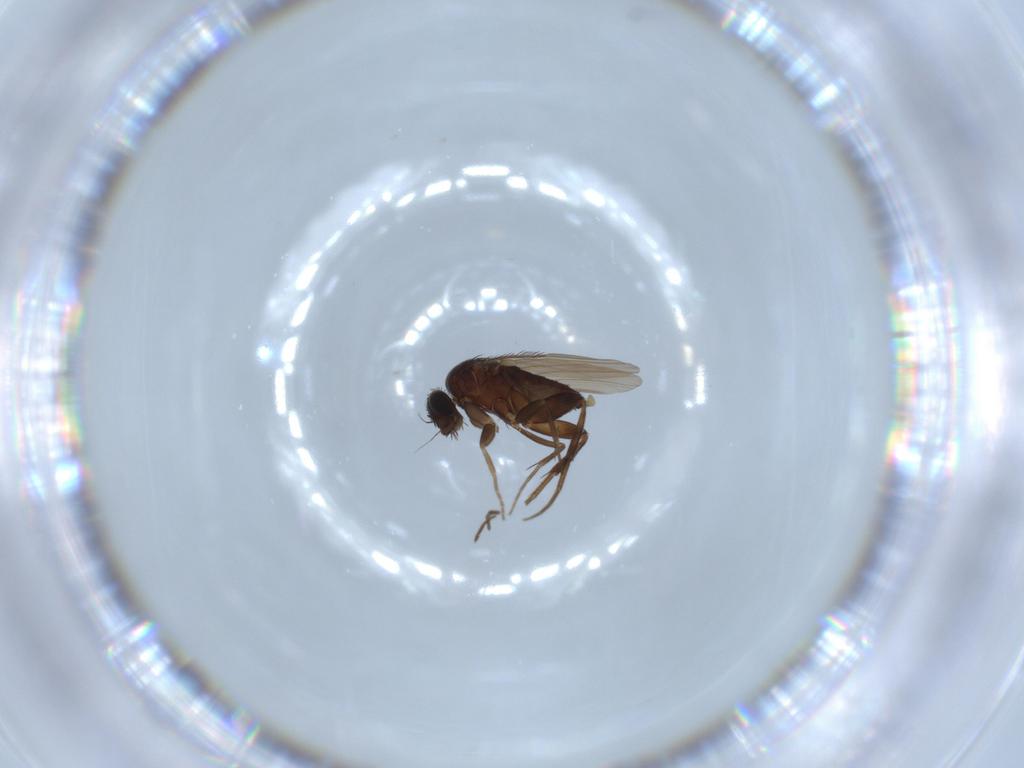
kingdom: Animalia
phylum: Arthropoda
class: Insecta
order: Diptera
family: Phoridae
